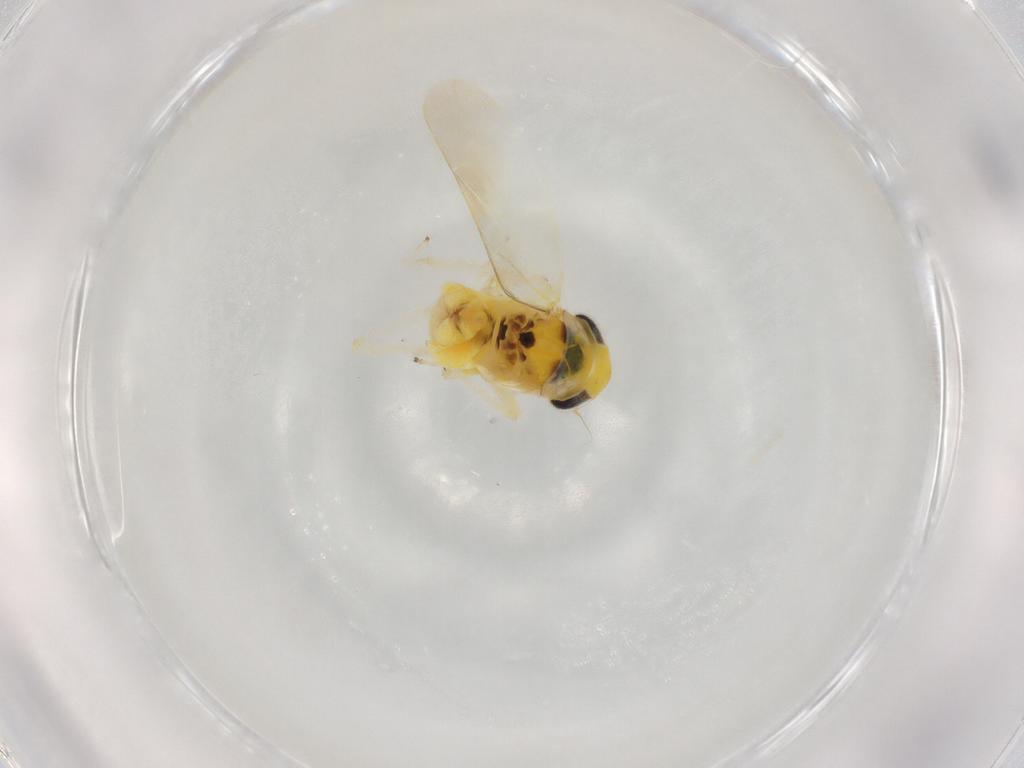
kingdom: Animalia
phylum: Arthropoda
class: Insecta
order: Hemiptera
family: Cicadellidae
